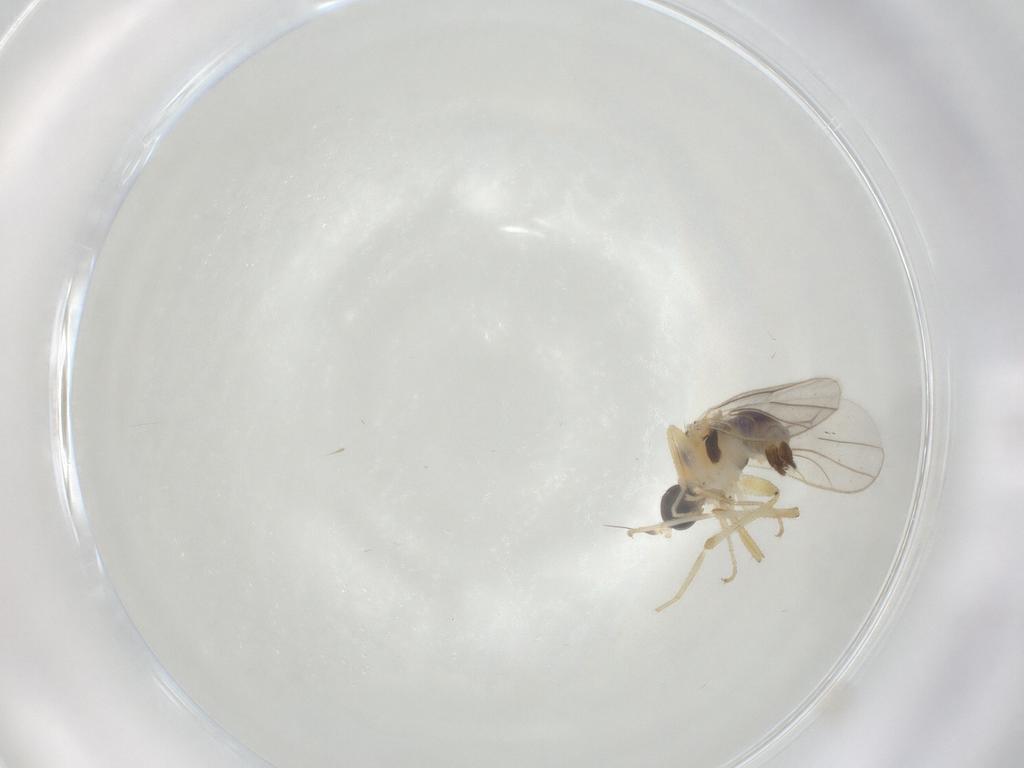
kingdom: Animalia
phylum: Arthropoda
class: Insecta
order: Diptera
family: Hybotidae
